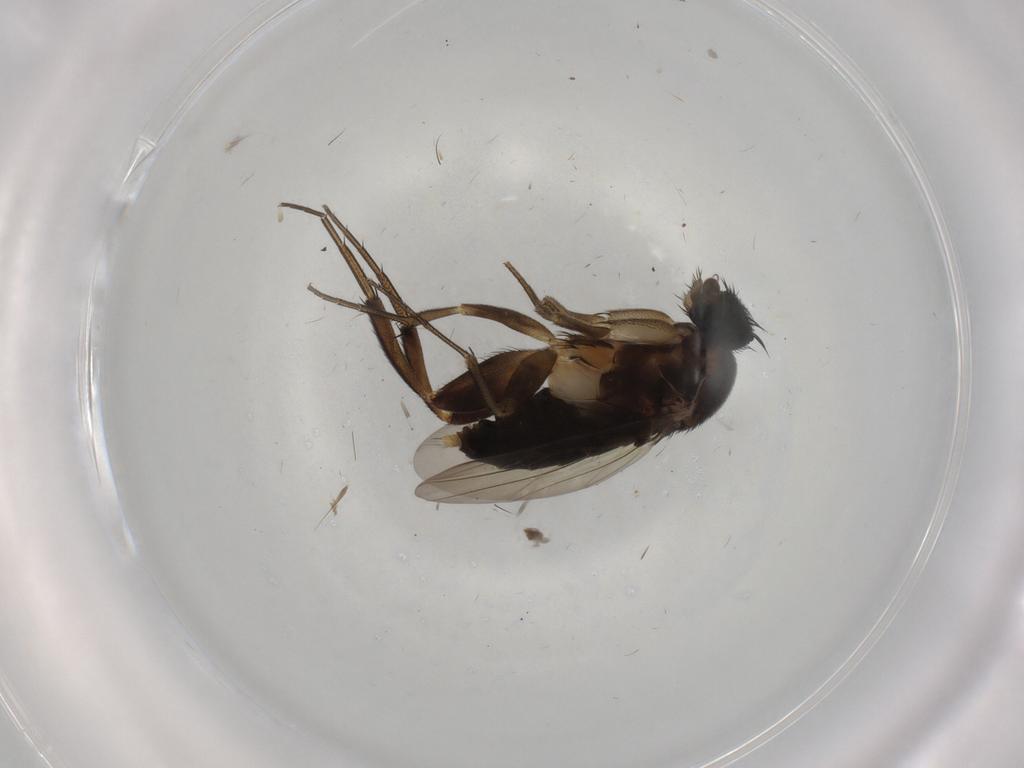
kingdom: Animalia
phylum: Arthropoda
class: Insecta
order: Diptera
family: Phoridae
